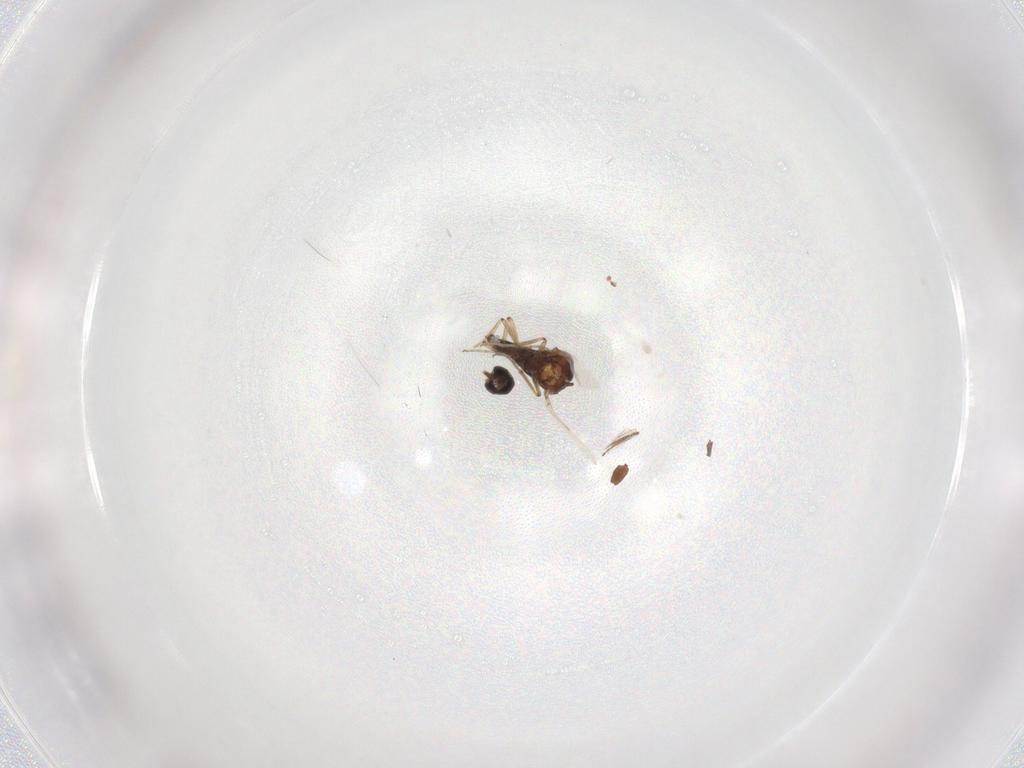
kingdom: Animalia
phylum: Arthropoda
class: Insecta
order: Diptera
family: Ceratopogonidae
